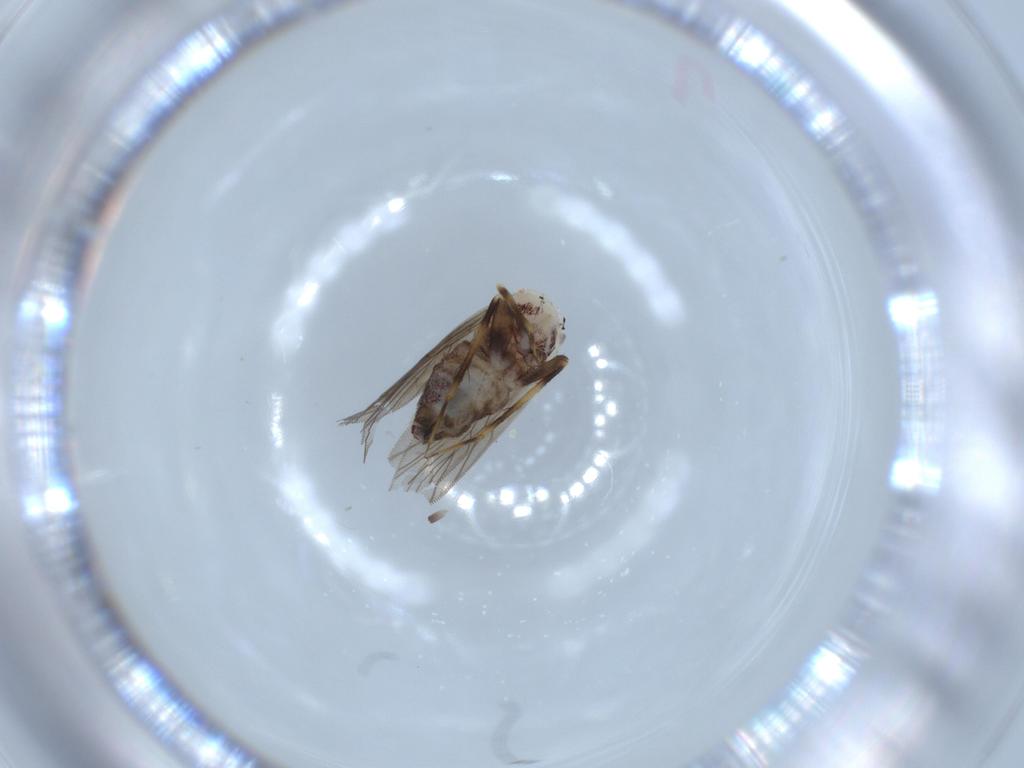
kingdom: Animalia
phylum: Arthropoda
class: Insecta
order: Psocodea
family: Lepidopsocidae
